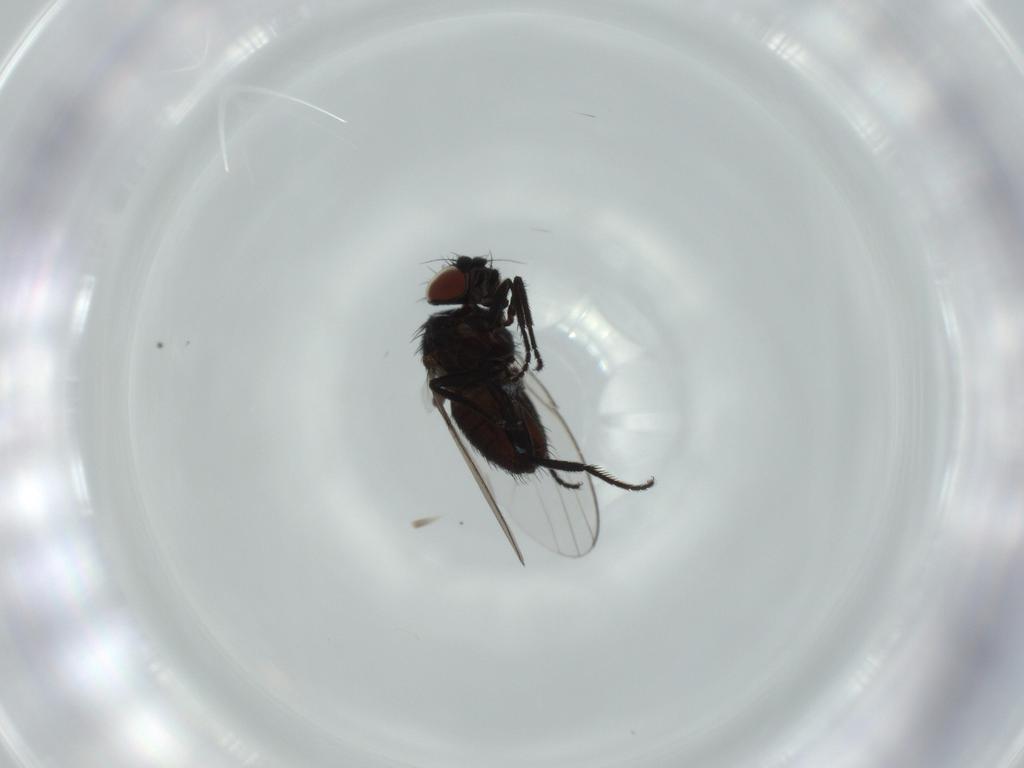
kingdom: Animalia
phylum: Arthropoda
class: Insecta
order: Diptera
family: Milichiidae
